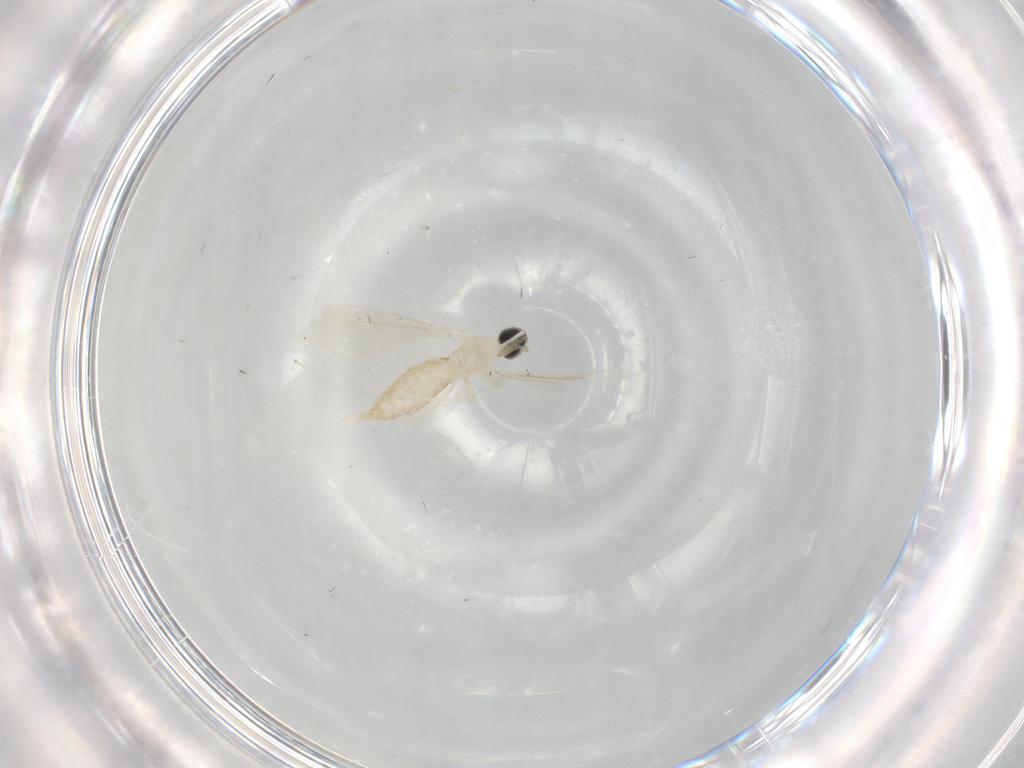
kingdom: Animalia
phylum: Arthropoda
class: Insecta
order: Diptera
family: Cecidomyiidae
